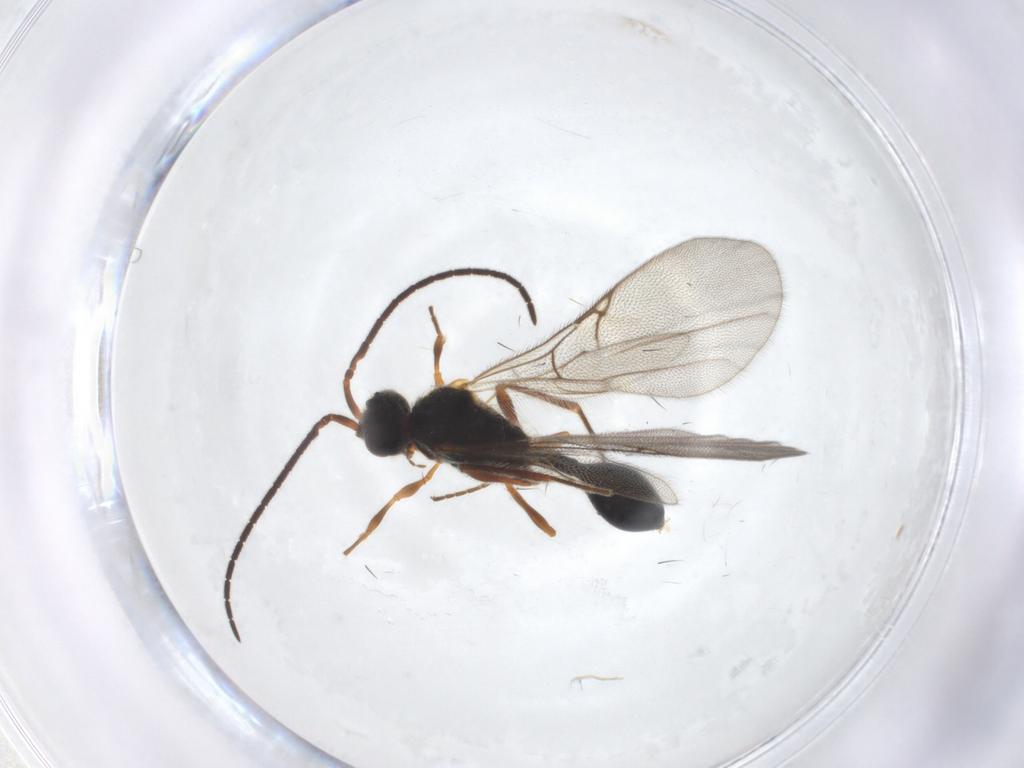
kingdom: Animalia
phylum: Arthropoda
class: Insecta
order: Hymenoptera
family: Diapriidae
